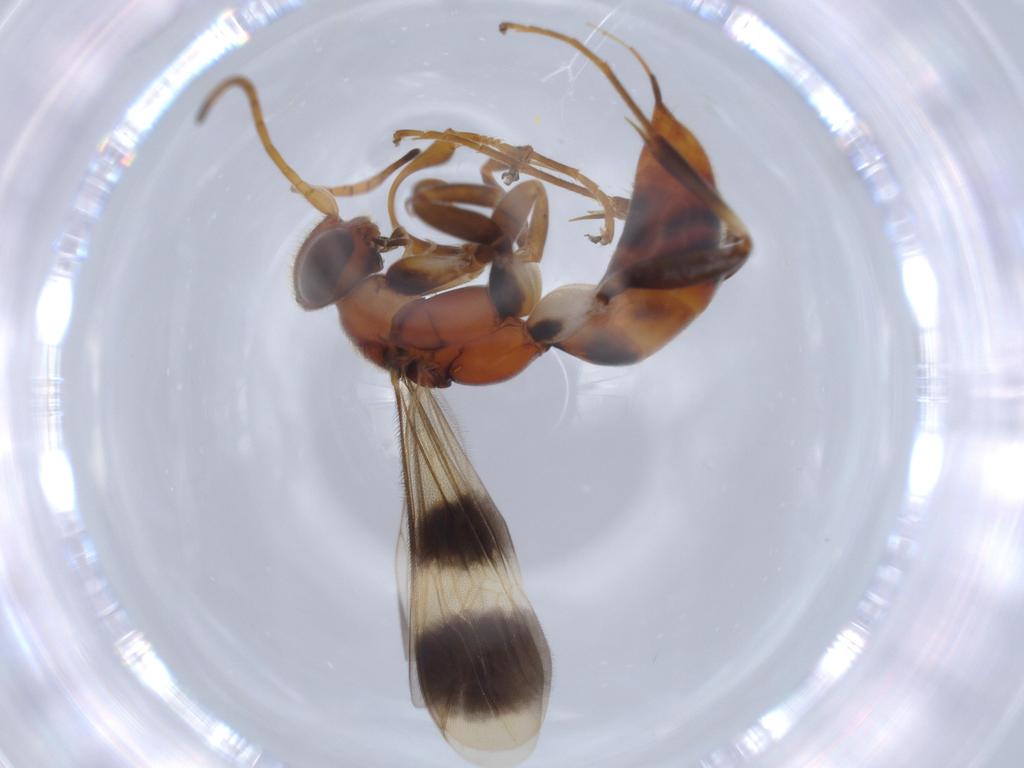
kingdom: Animalia
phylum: Arthropoda
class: Insecta
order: Hymenoptera
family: Diapriidae
